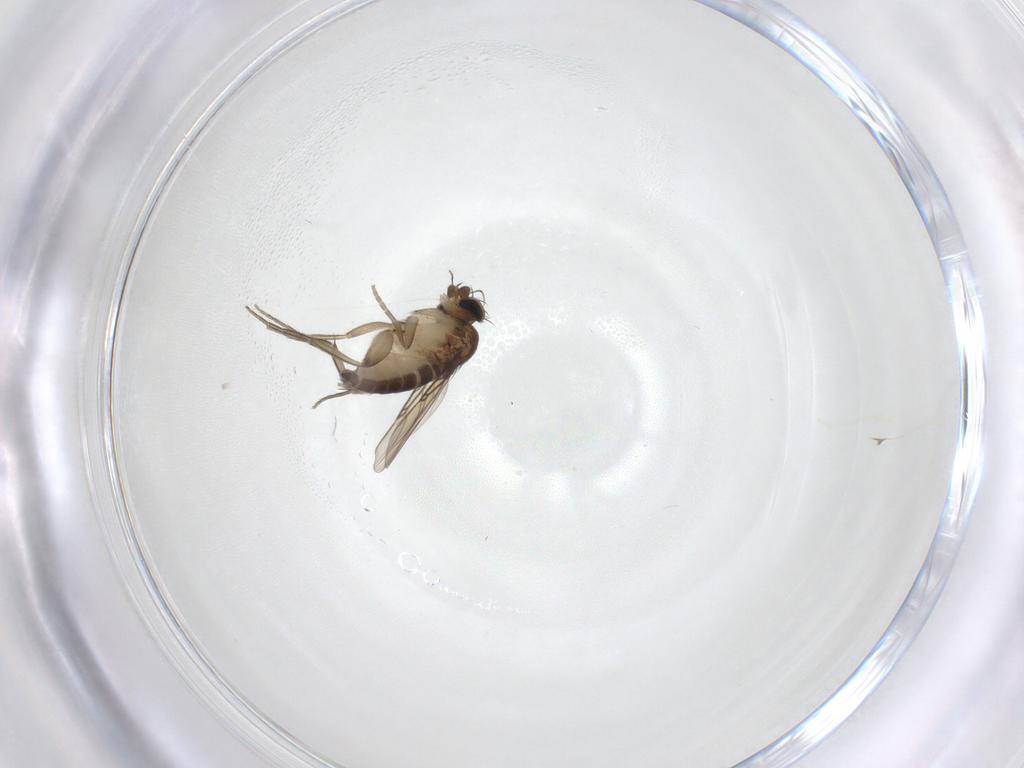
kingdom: Animalia
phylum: Arthropoda
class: Insecta
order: Diptera
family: Phoridae
